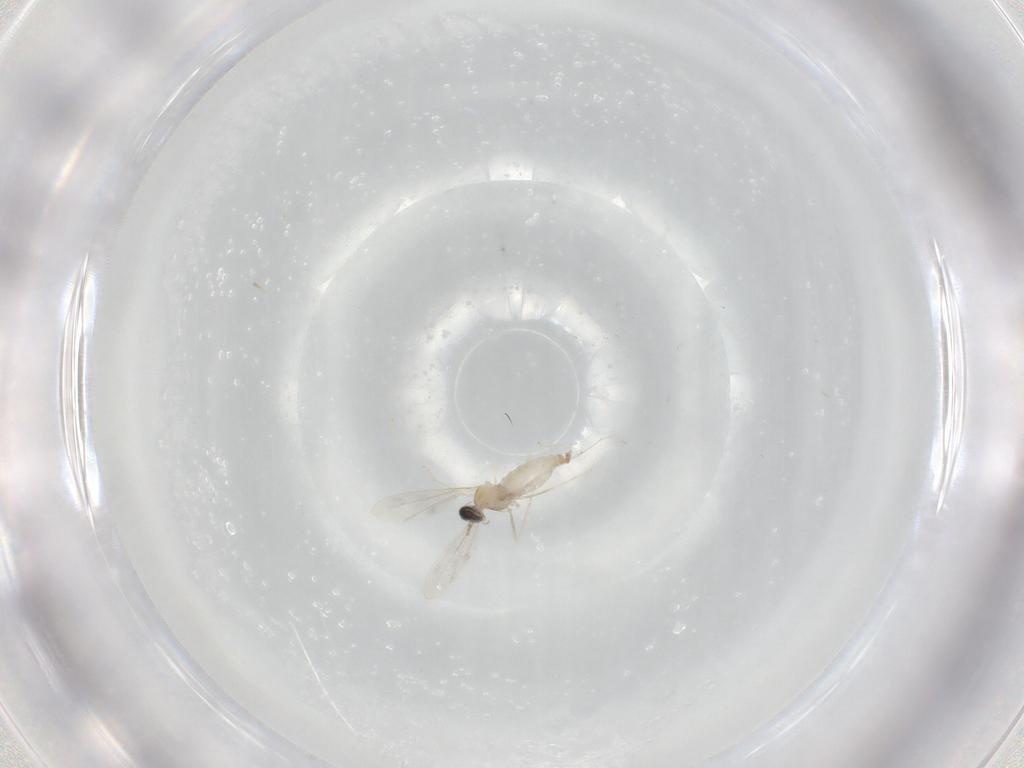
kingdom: Animalia
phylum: Arthropoda
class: Insecta
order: Diptera
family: Cecidomyiidae
